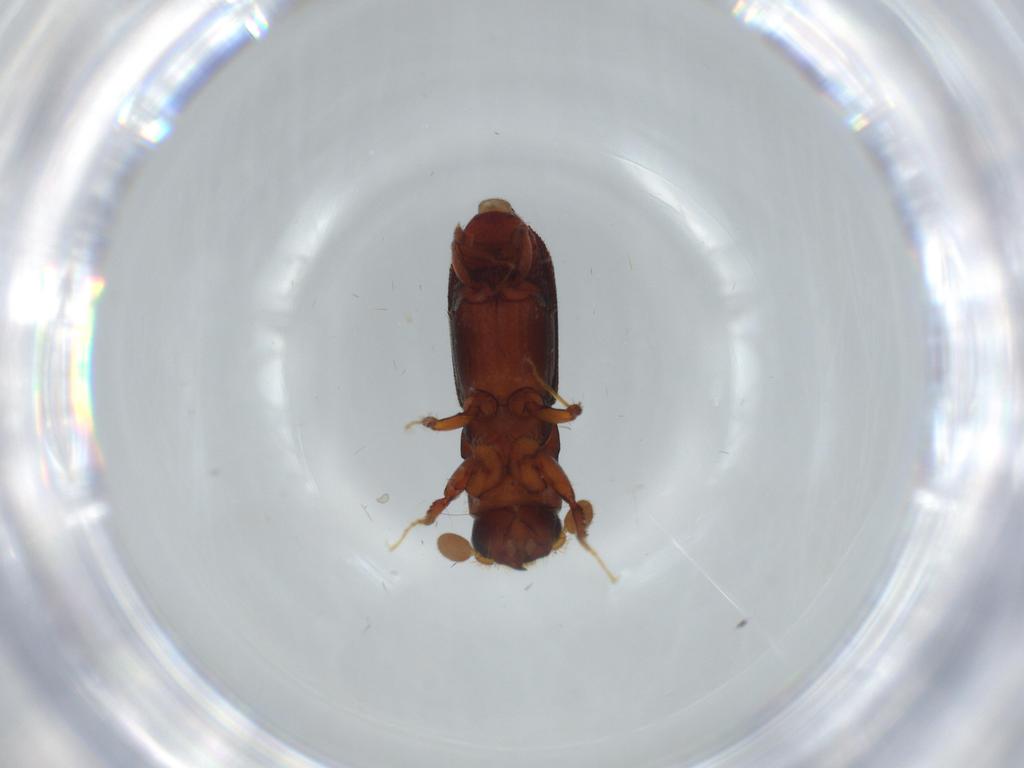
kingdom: Animalia
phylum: Arthropoda
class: Insecta
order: Coleoptera
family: Curculionidae
